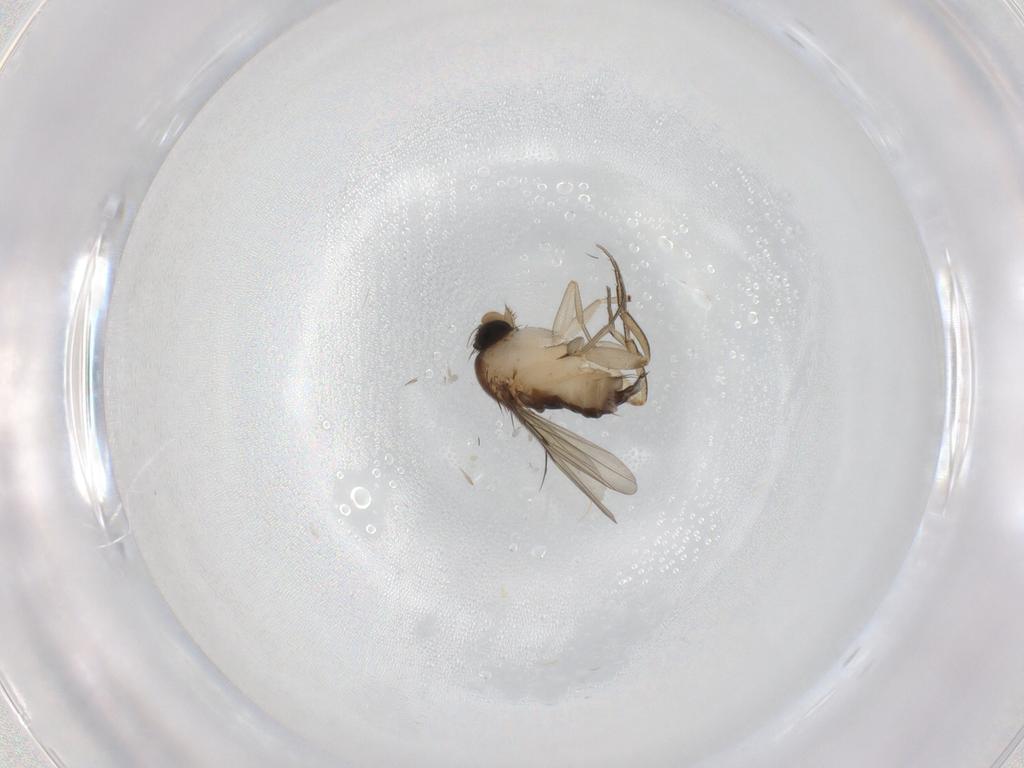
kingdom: Animalia
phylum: Arthropoda
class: Insecta
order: Diptera
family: Phoridae
